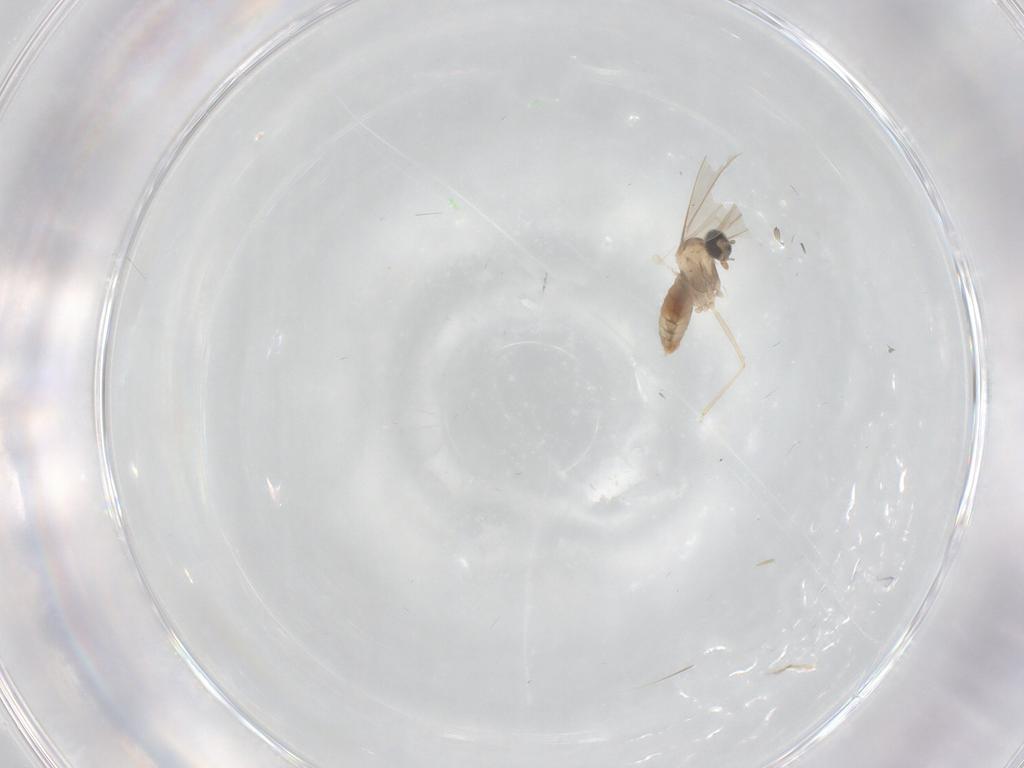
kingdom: Animalia
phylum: Arthropoda
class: Insecta
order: Diptera
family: Cecidomyiidae
